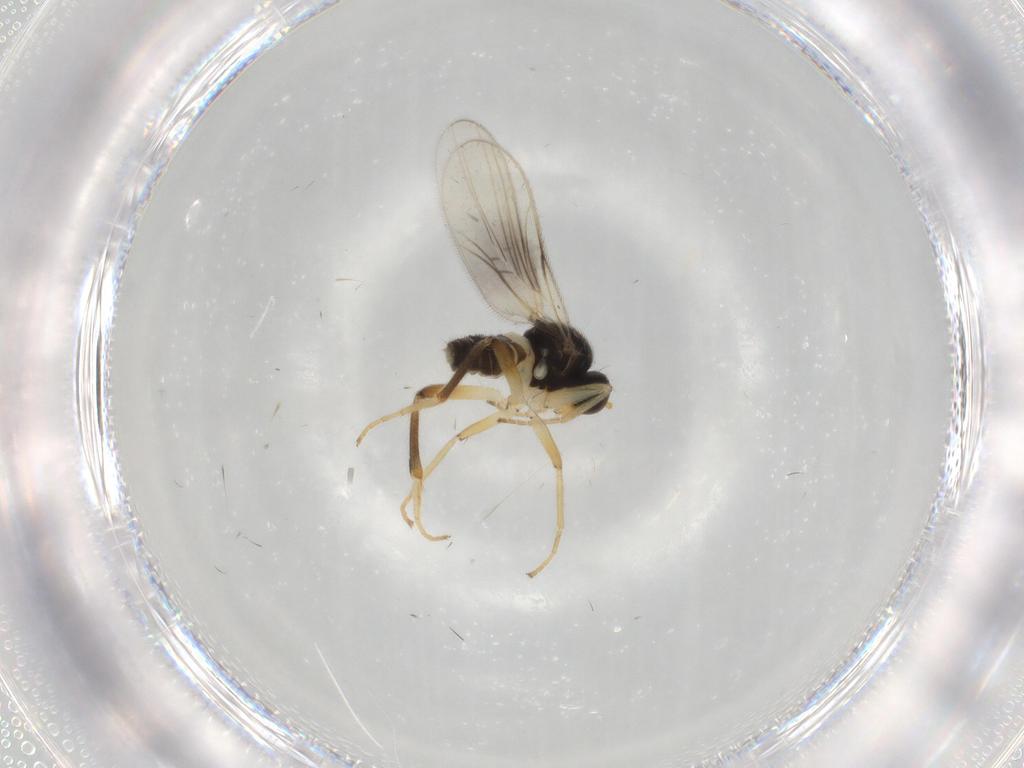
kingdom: Animalia
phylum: Arthropoda
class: Insecta
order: Diptera
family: Hybotidae
